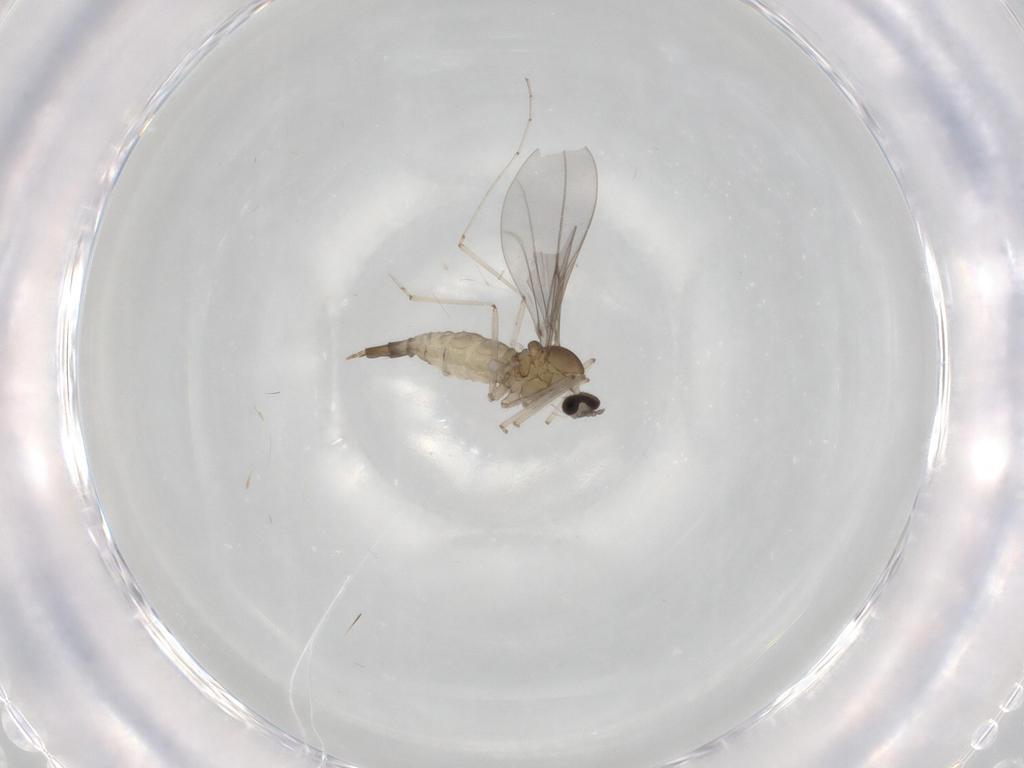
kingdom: Animalia
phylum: Arthropoda
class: Insecta
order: Diptera
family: Cecidomyiidae
